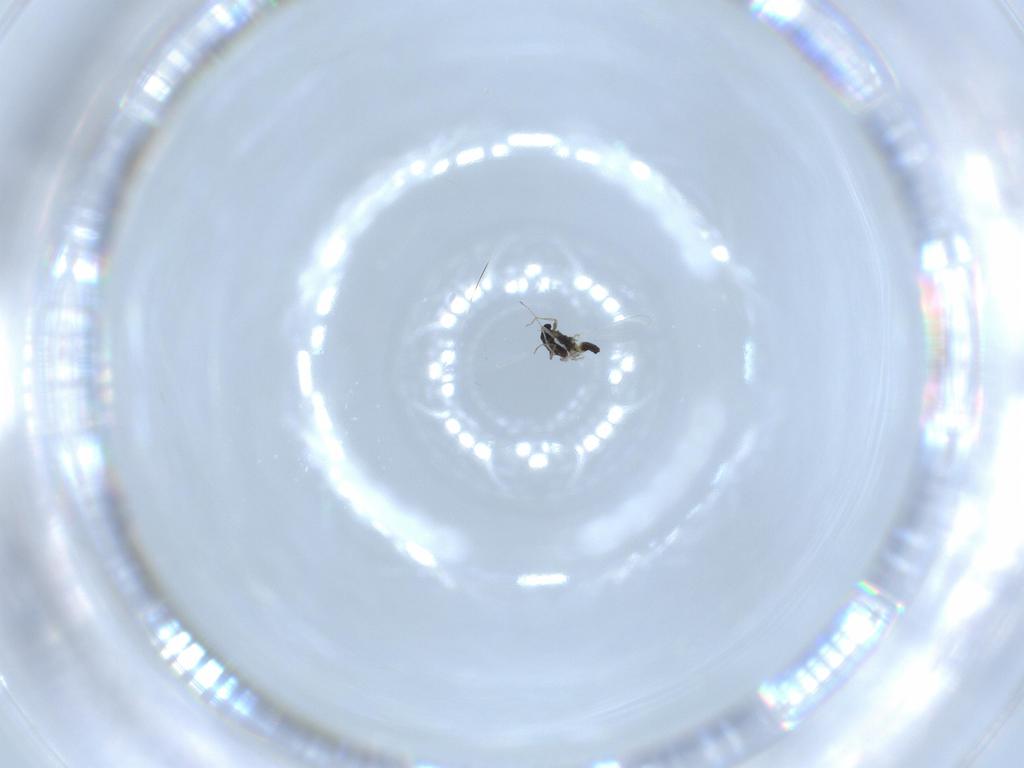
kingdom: Animalia
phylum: Arthropoda
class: Insecta
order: Diptera
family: Chironomidae
